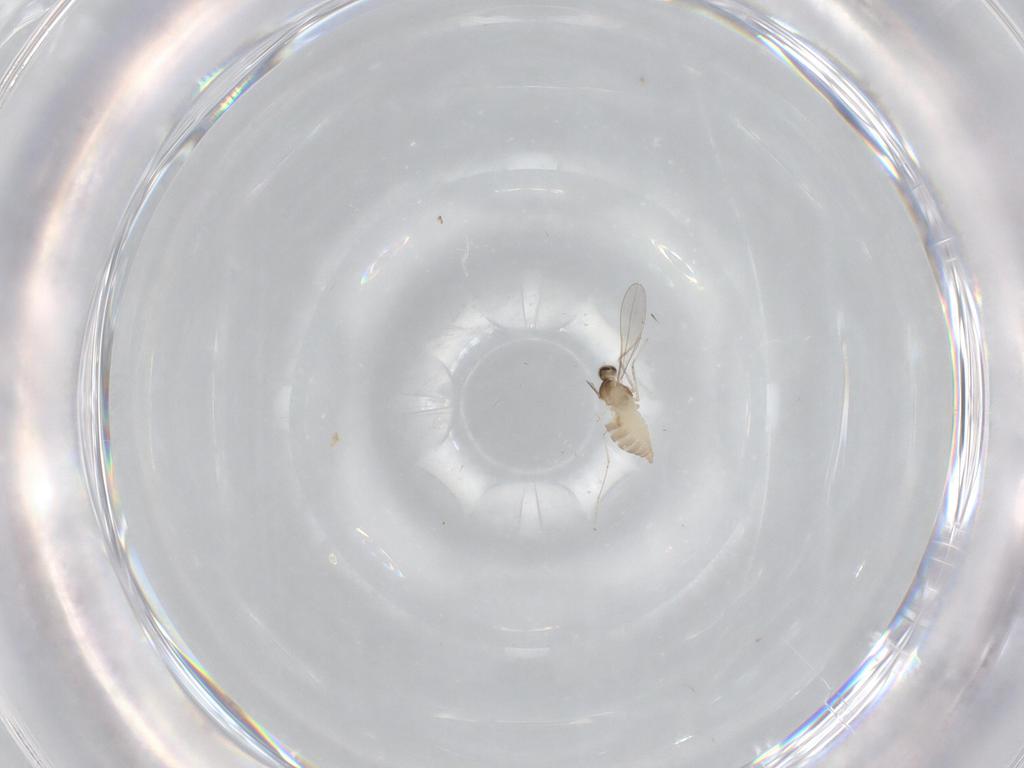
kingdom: Animalia
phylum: Arthropoda
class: Insecta
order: Diptera
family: Cecidomyiidae
